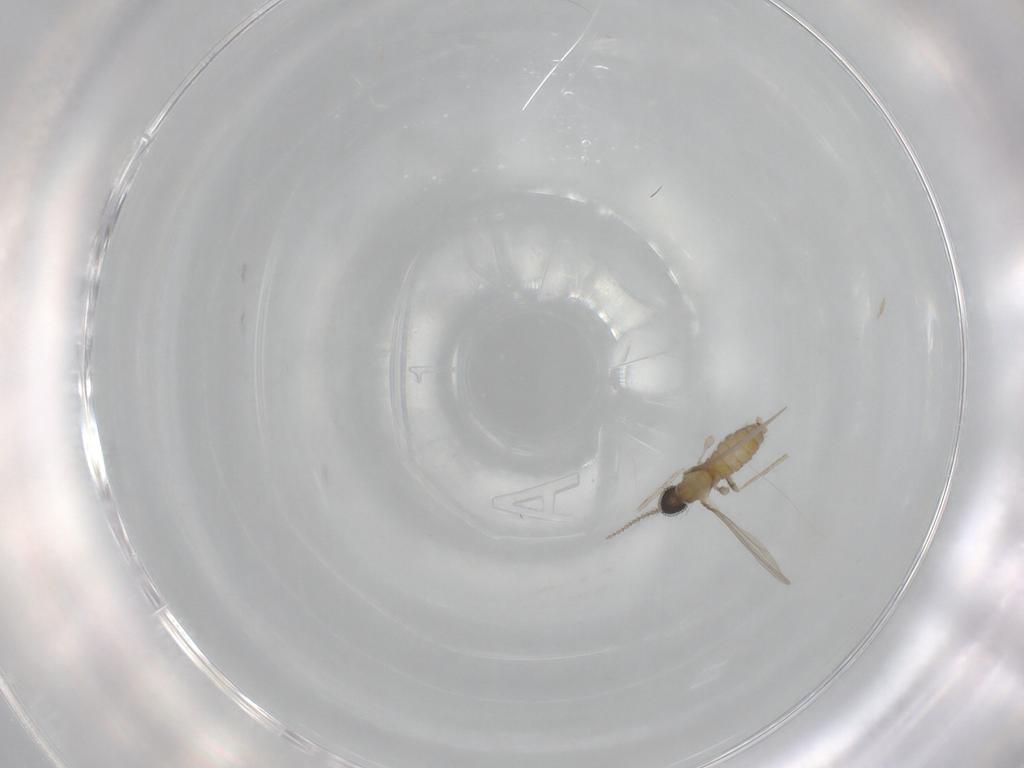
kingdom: Animalia
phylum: Arthropoda
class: Insecta
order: Diptera
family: Cecidomyiidae
